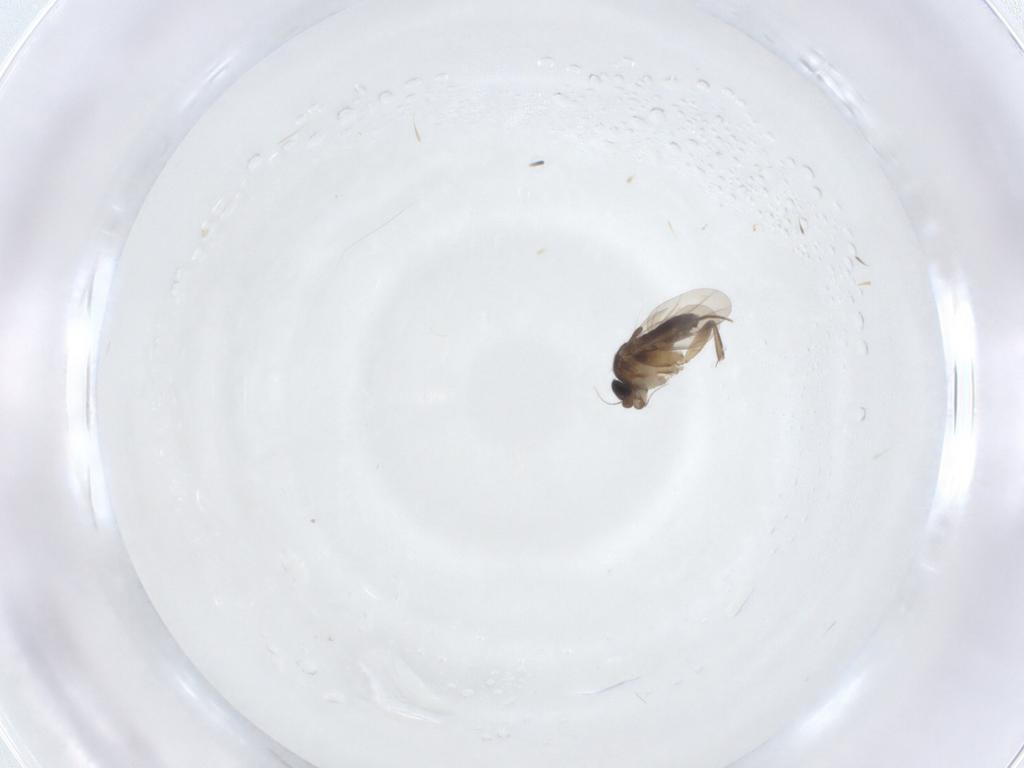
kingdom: Animalia
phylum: Arthropoda
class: Insecta
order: Diptera
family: Phoridae
